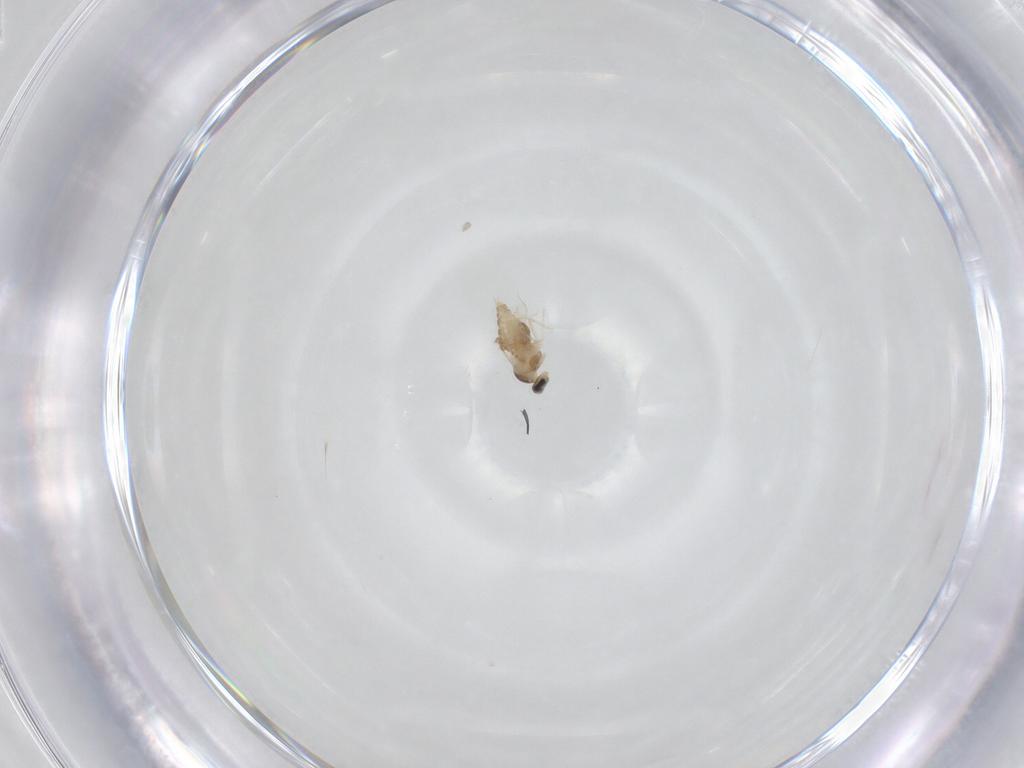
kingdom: Animalia
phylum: Arthropoda
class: Insecta
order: Diptera
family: Cecidomyiidae
